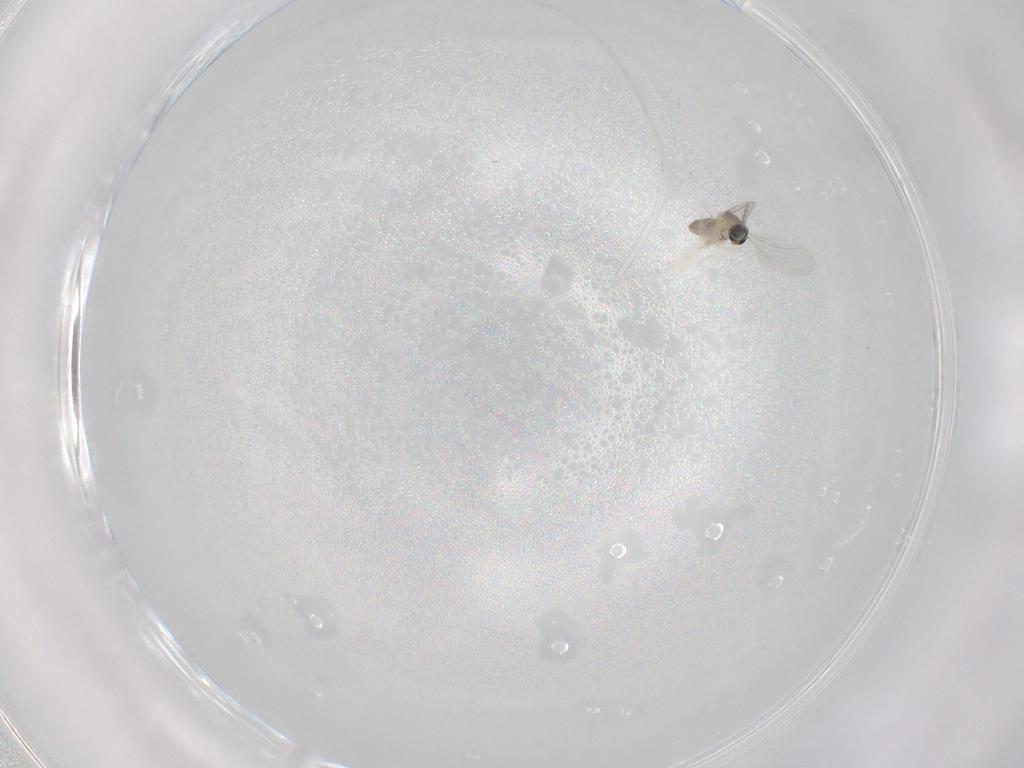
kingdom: Animalia
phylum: Arthropoda
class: Insecta
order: Diptera
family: Cecidomyiidae
